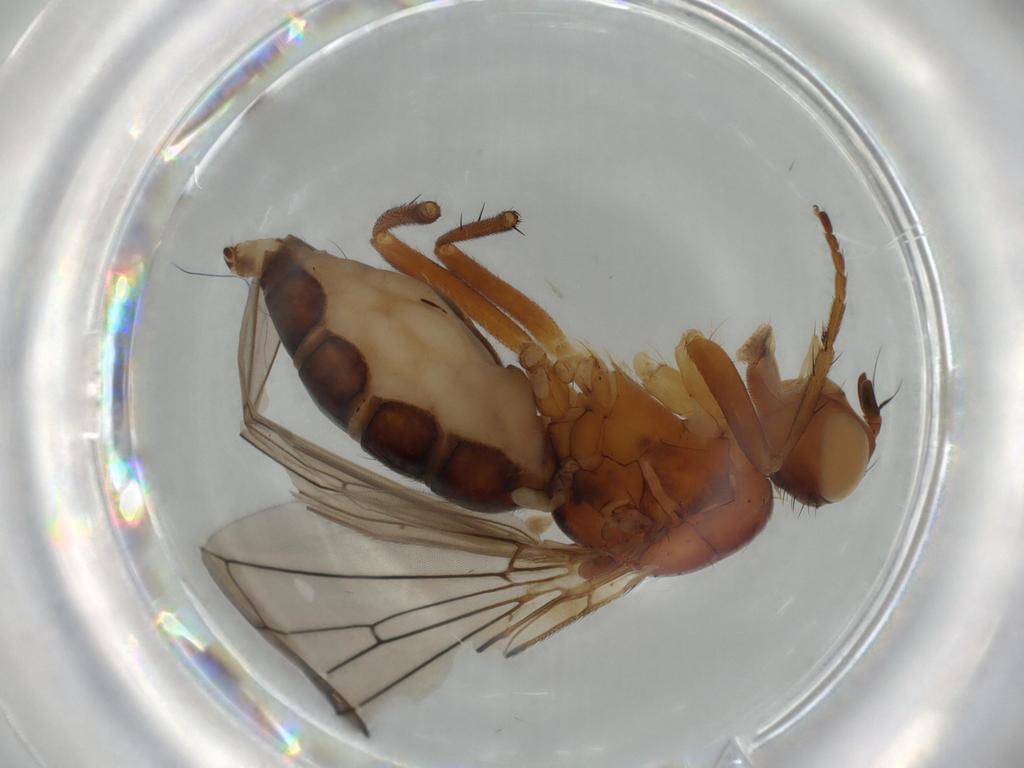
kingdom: Animalia
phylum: Arthropoda
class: Insecta
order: Diptera
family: Scathophagidae
